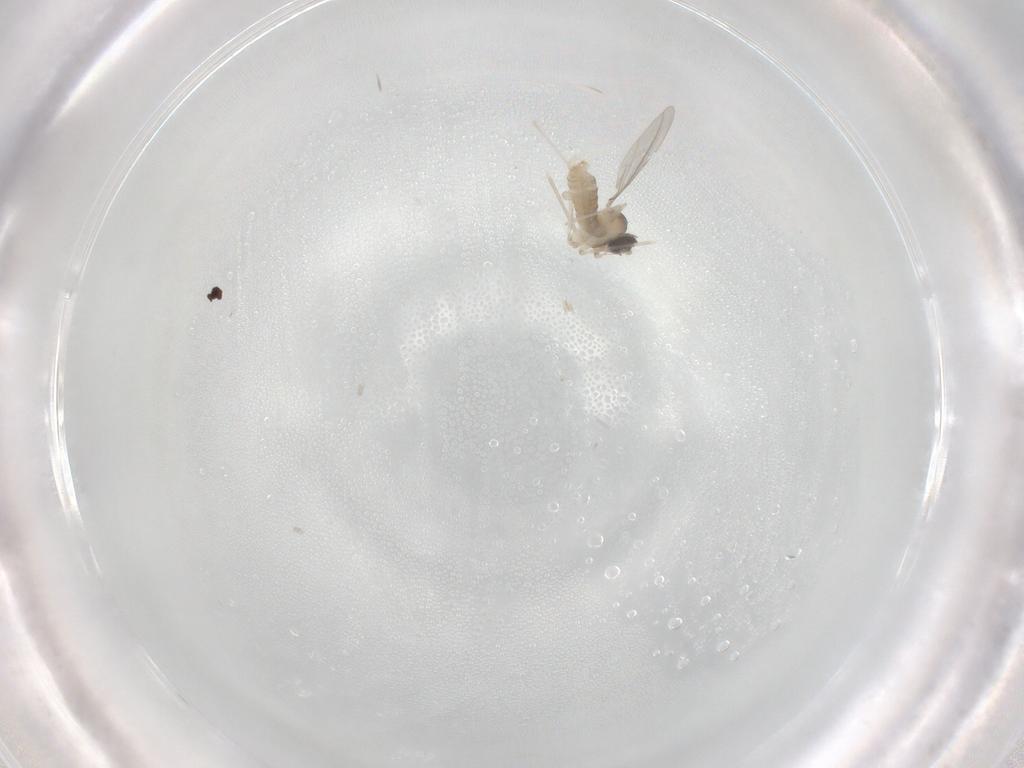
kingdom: Animalia
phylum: Arthropoda
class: Insecta
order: Diptera
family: Cecidomyiidae
